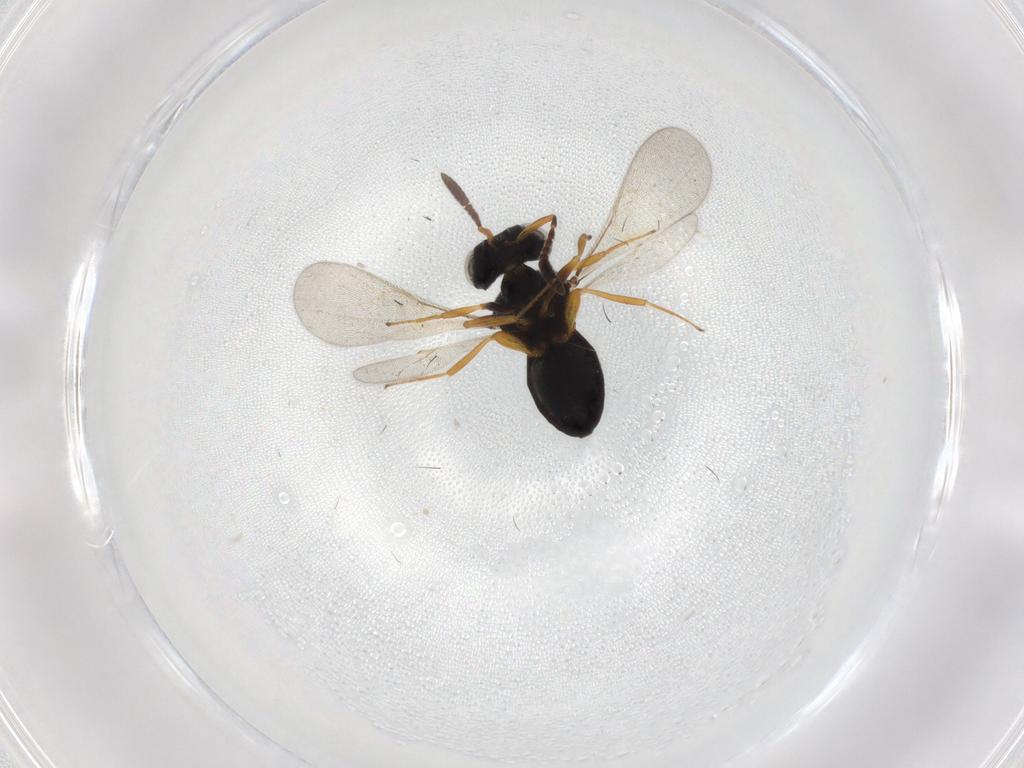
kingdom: Animalia
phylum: Arthropoda
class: Insecta
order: Hymenoptera
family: Scelionidae
